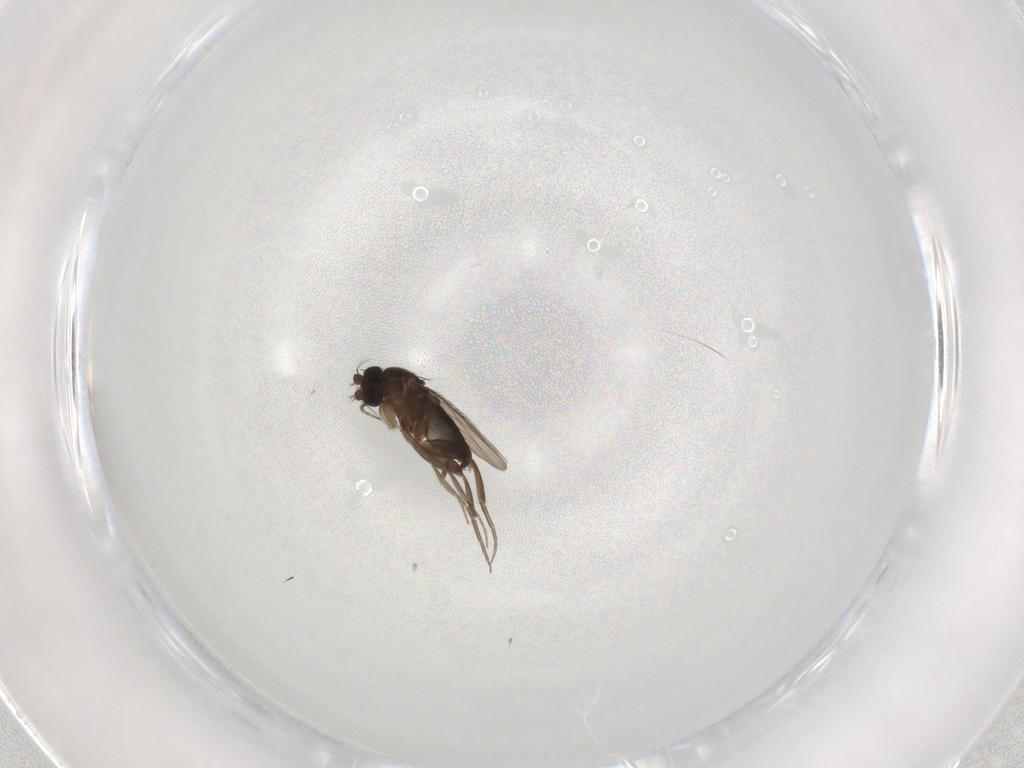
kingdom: Animalia
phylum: Arthropoda
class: Insecta
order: Diptera
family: Phoridae
